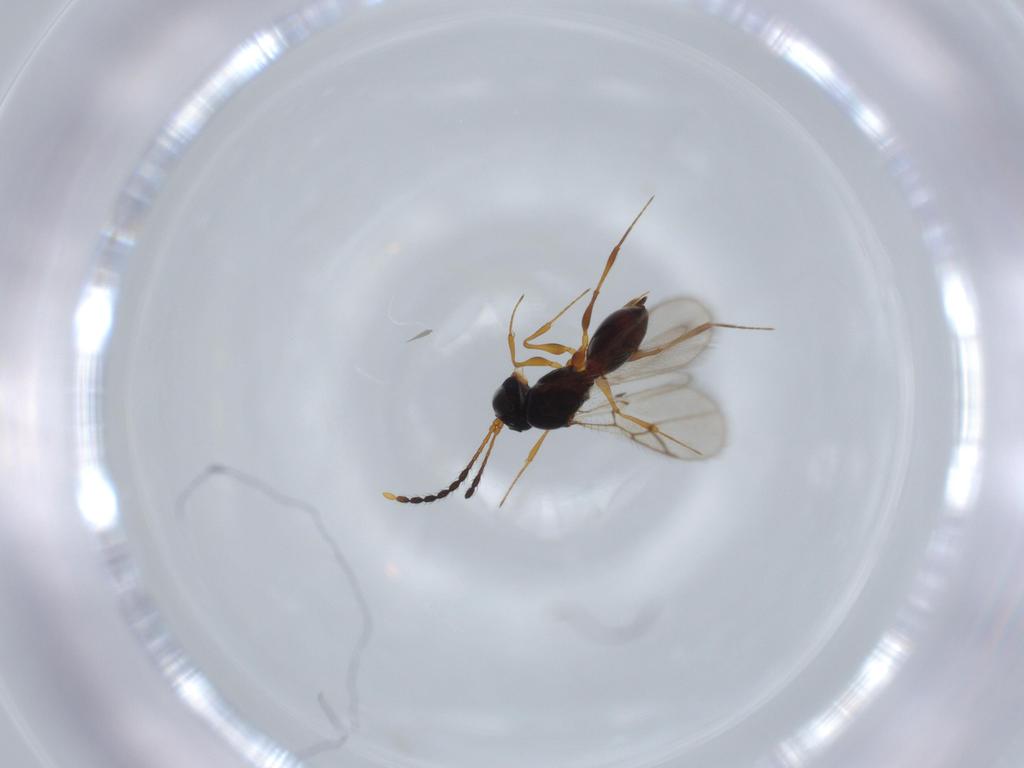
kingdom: Animalia
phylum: Arthropoda
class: Insecta
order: Hymenoptera
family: Figitidae
